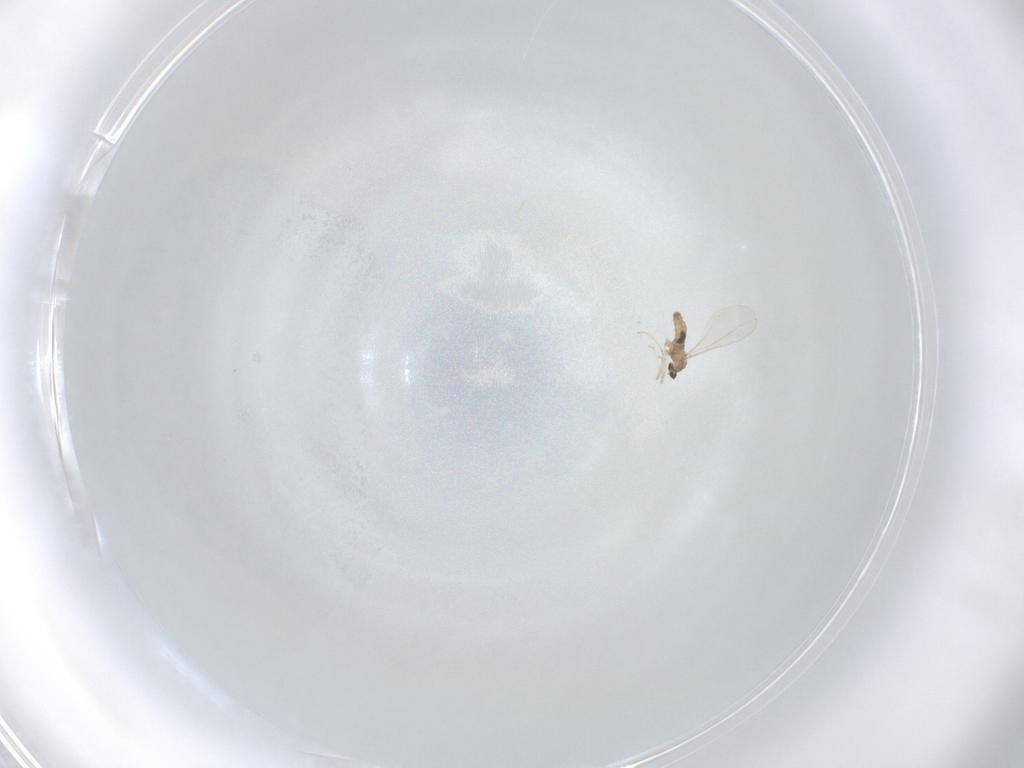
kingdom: Animalia
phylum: Arthropoda
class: Insecta
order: Diptera
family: Cecidomyiidae
